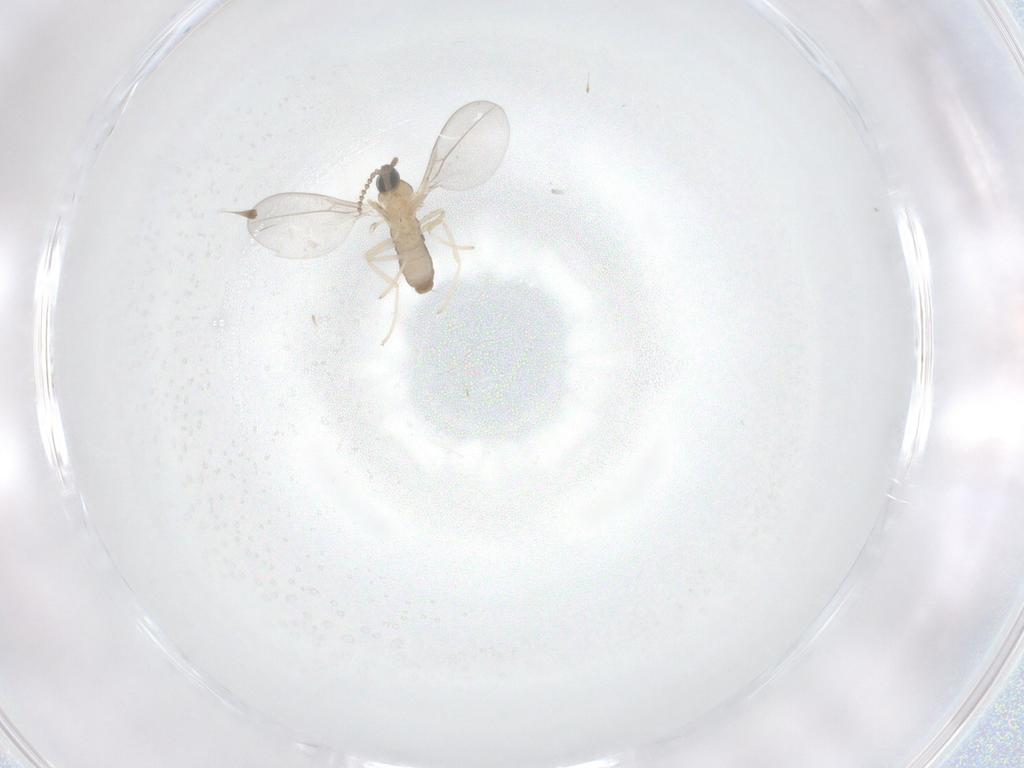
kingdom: Animalia
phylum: Arthropoda
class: Insecta
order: Diptera
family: Cecidomyiidae
